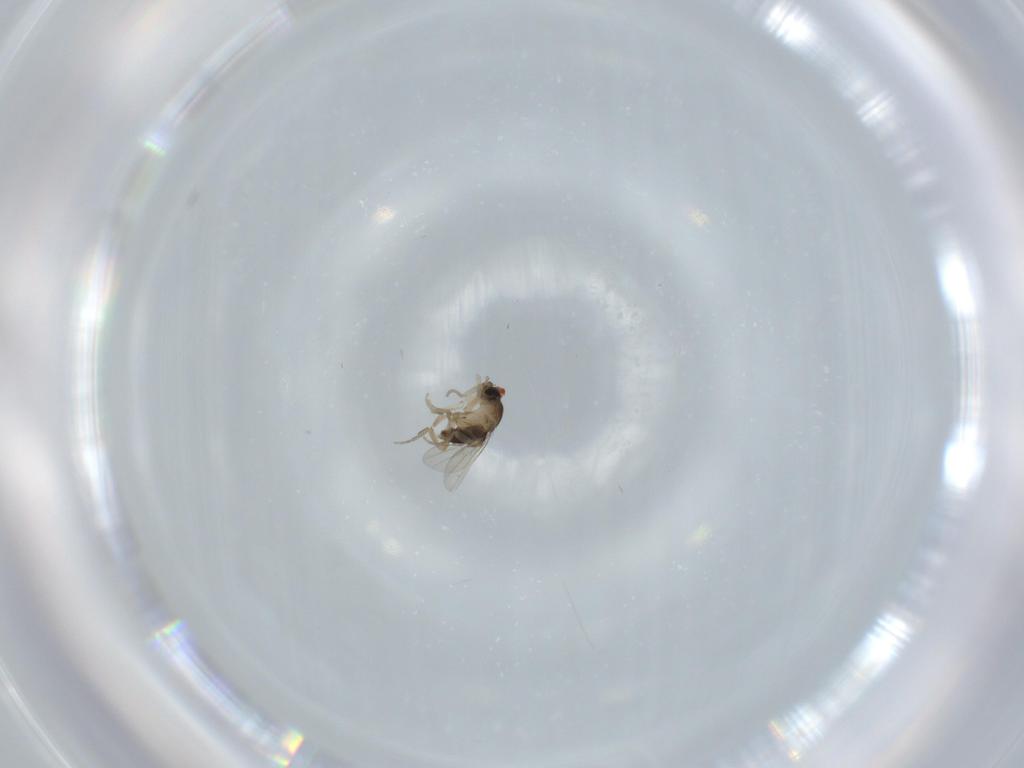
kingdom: Animalia
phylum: Arthropoda
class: Insecta
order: Diptera
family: Phoridae
